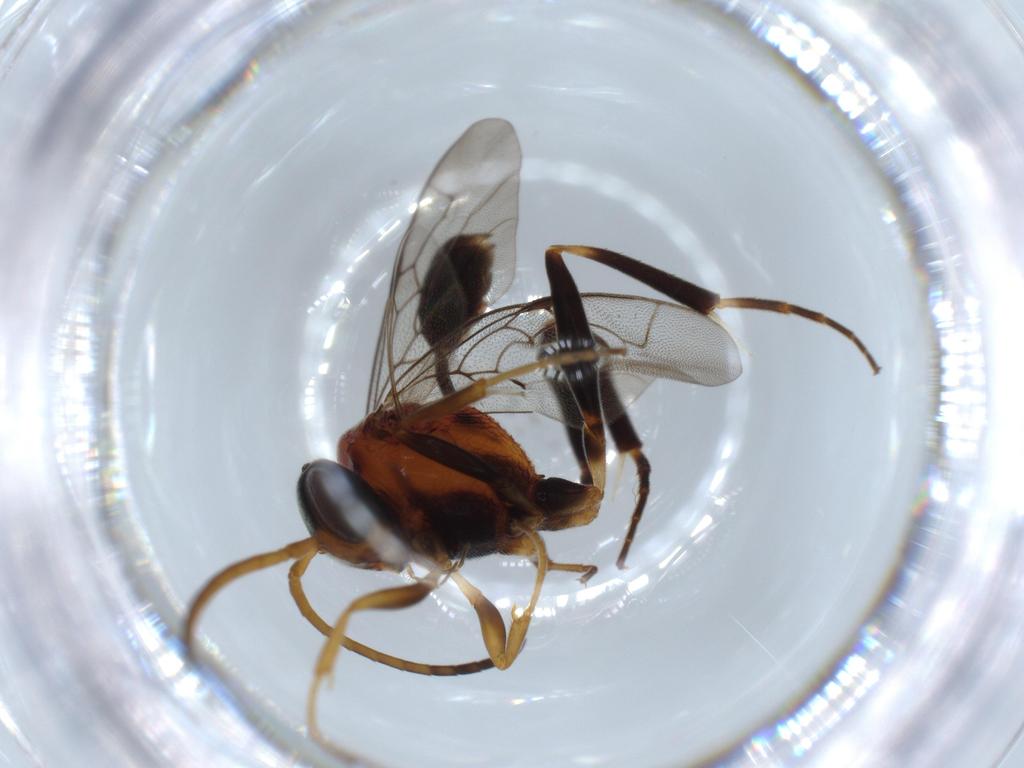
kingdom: Animalia
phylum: Arthropoda
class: Insecta
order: Hymenoptera
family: Evaniidae
